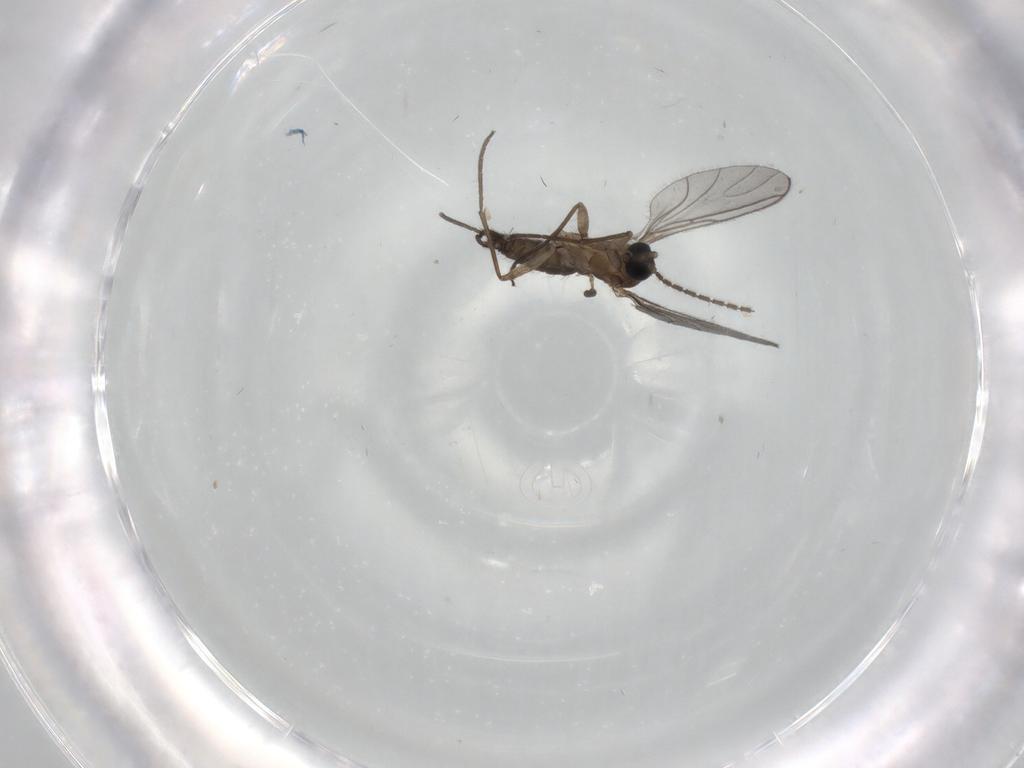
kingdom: Animalia
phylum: Arthropoda
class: Insecta
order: Diptera
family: Sciaridae
